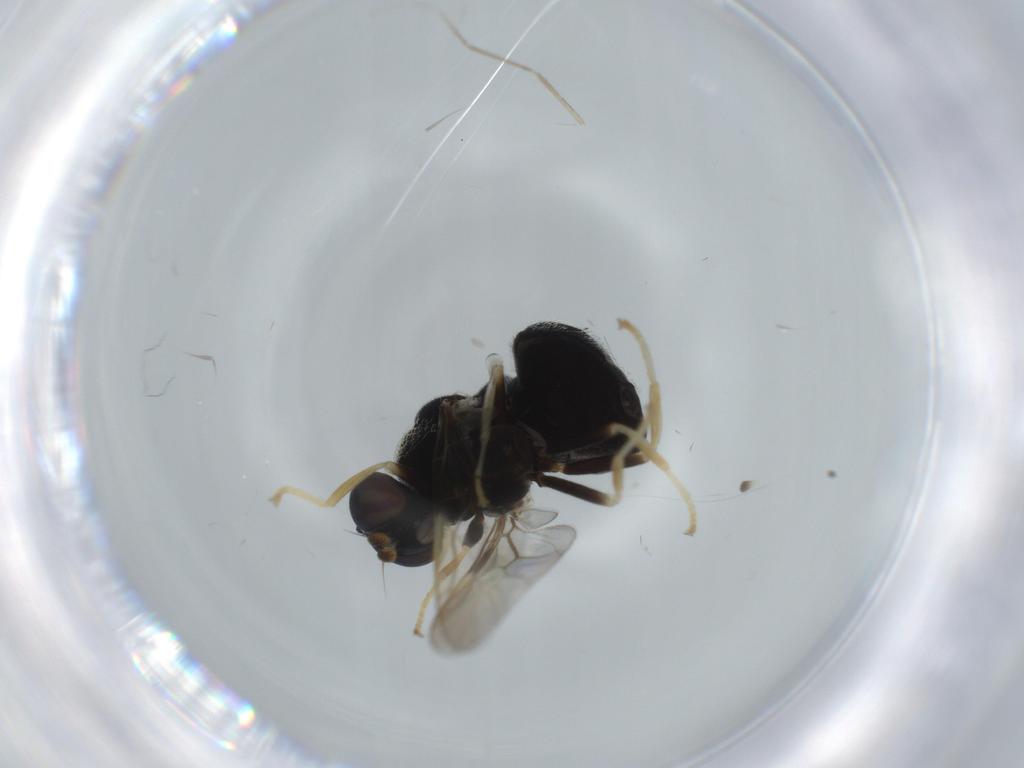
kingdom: Animalia
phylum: Arthropoda
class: Insecta
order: Diptera
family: Stratiomyidae
